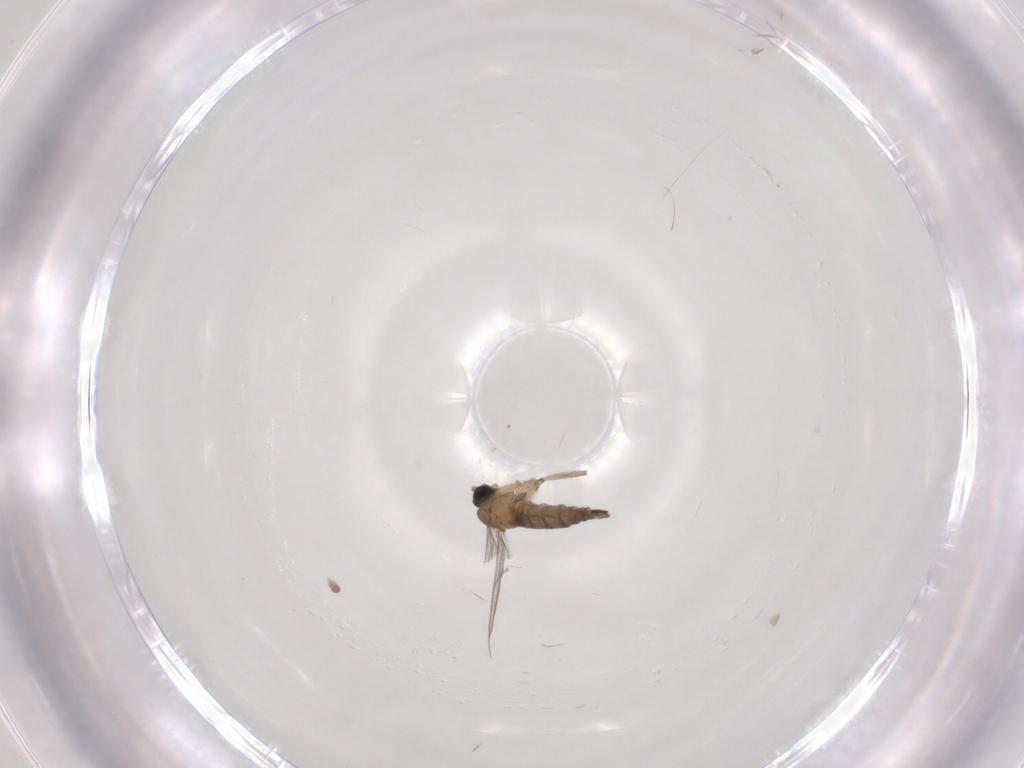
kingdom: Animalia
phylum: Arthropoda
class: Insecta
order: Diptera
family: Sciaridae
